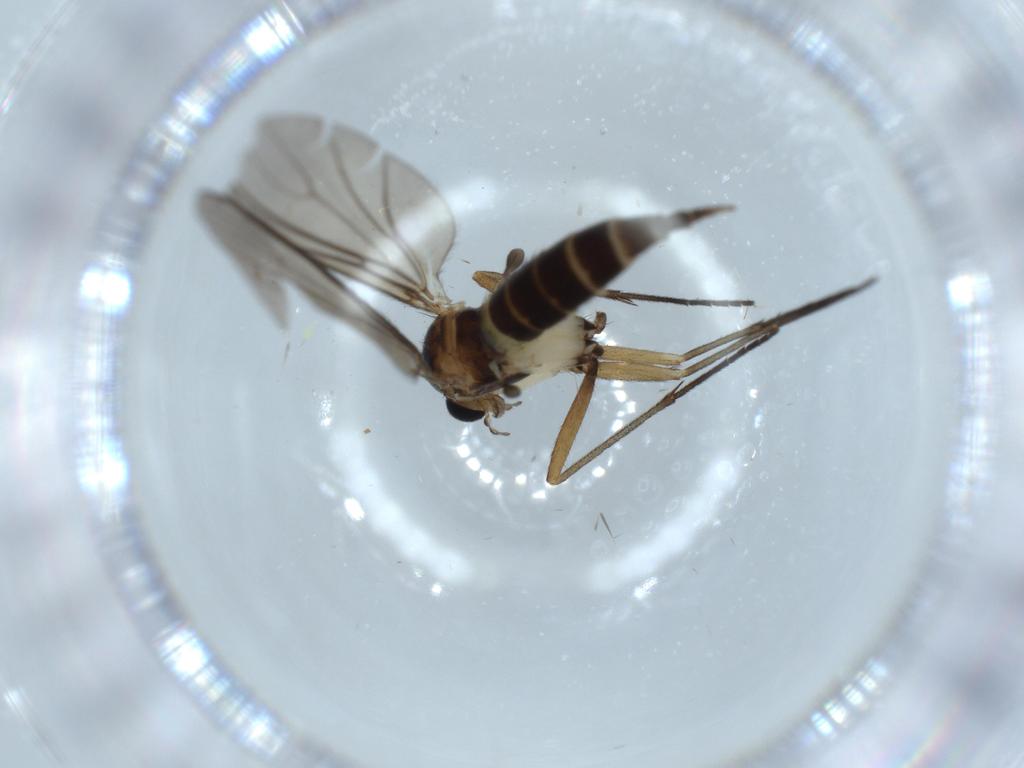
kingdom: Animalia
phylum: Arthropoda
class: Insecta
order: Diptera
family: Sciaridae
